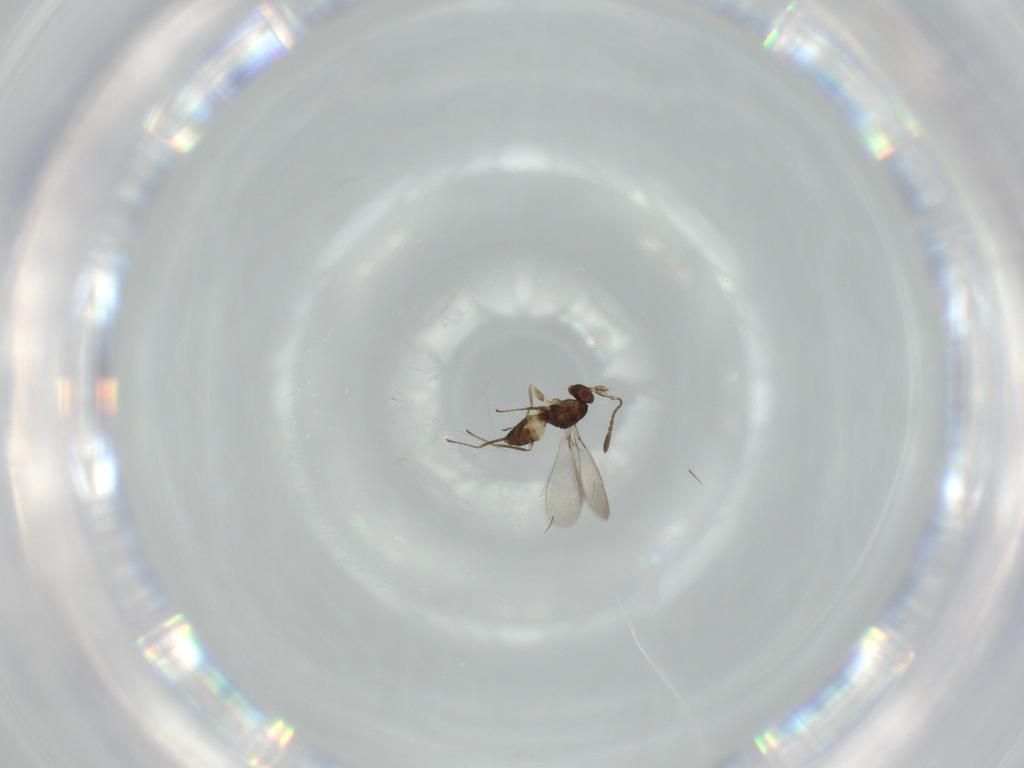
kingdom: Animalia
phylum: Arthropoda
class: Insecta
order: Hymenoptera
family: Mymaridae
